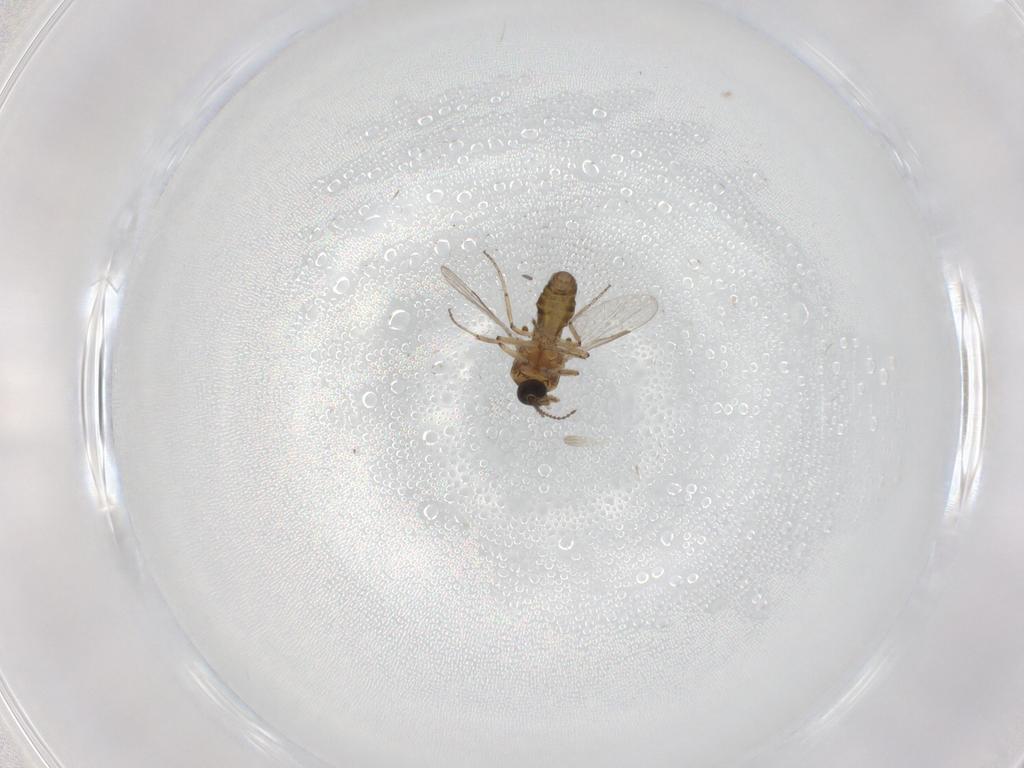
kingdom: Animalia
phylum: Arthropoda
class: Insecta
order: Diptera
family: Ceratopogonidae
